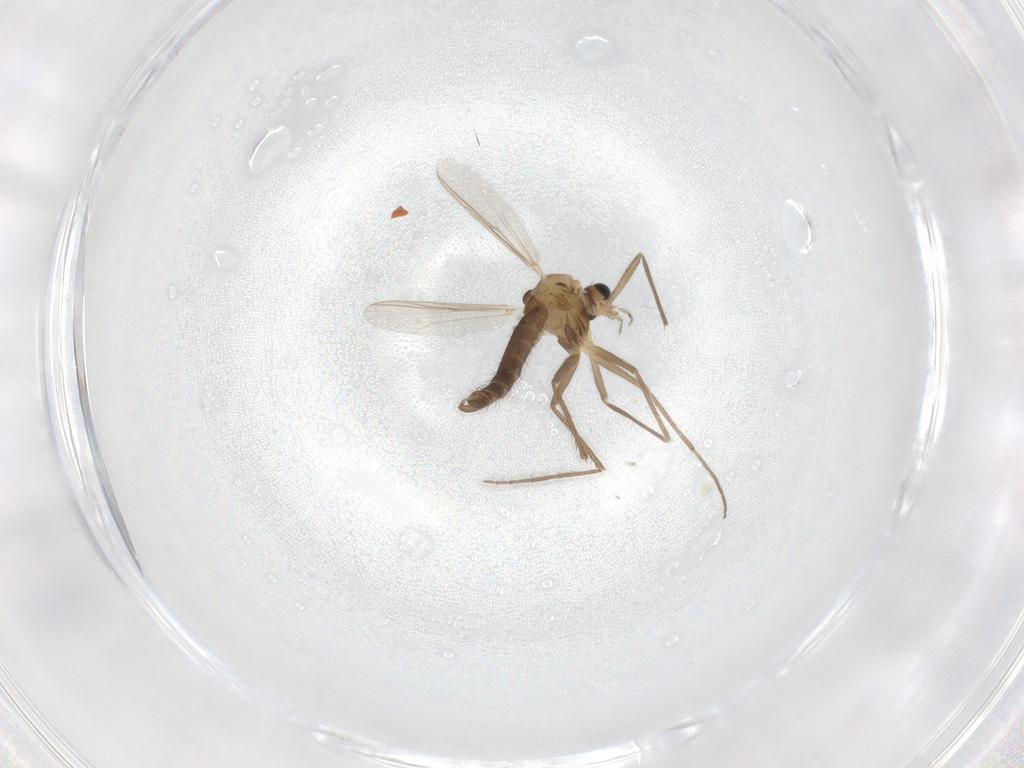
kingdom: Animalia
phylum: Arthropoda
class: Insecta
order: Diptera
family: Chironomidae
